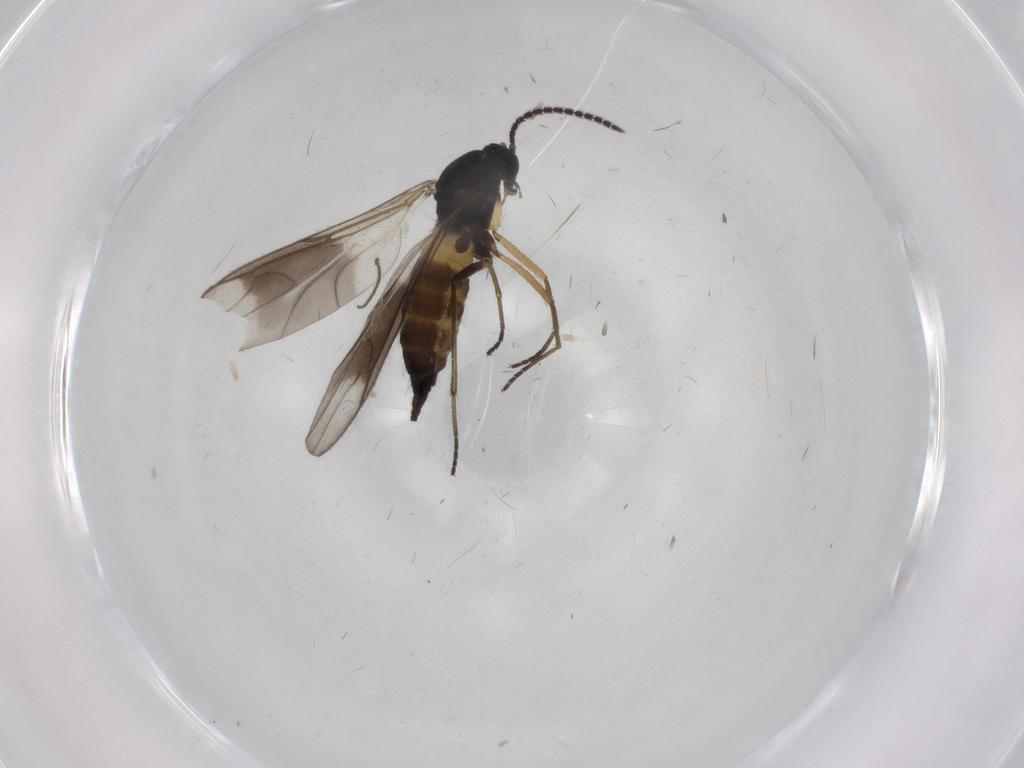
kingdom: Animalia
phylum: Arthropoda
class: Insecta
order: Diptera
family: Sciaridae
